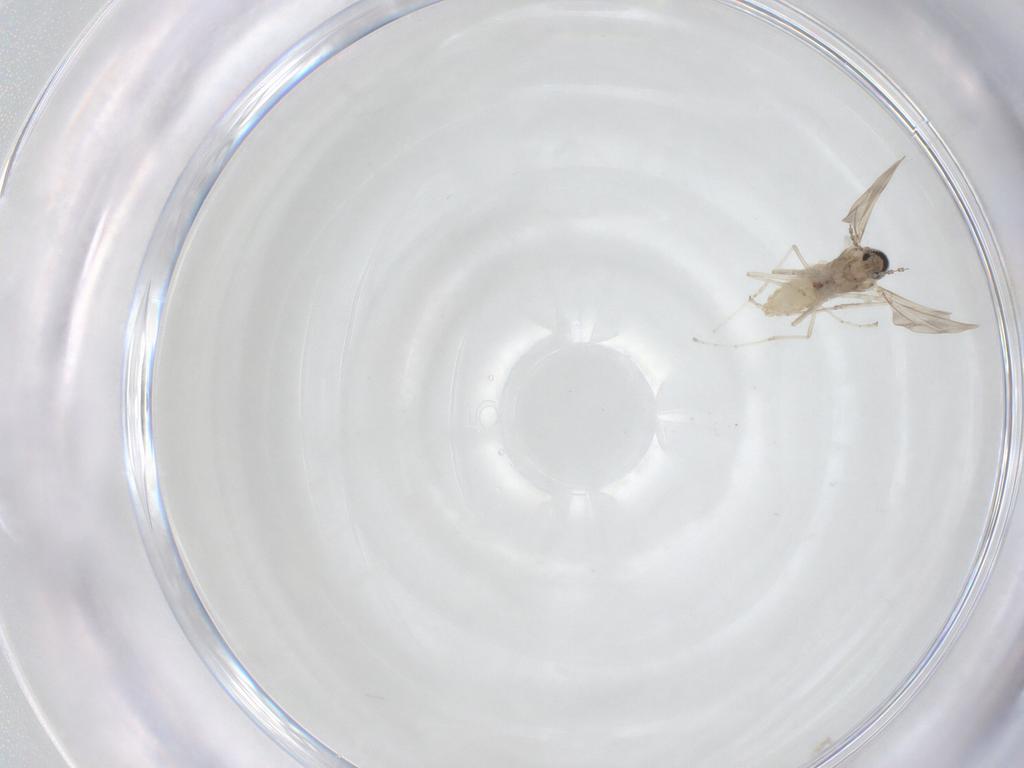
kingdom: Animalia
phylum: Arthropoda
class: Insecta
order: Diptera
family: Cecidomyiidae
